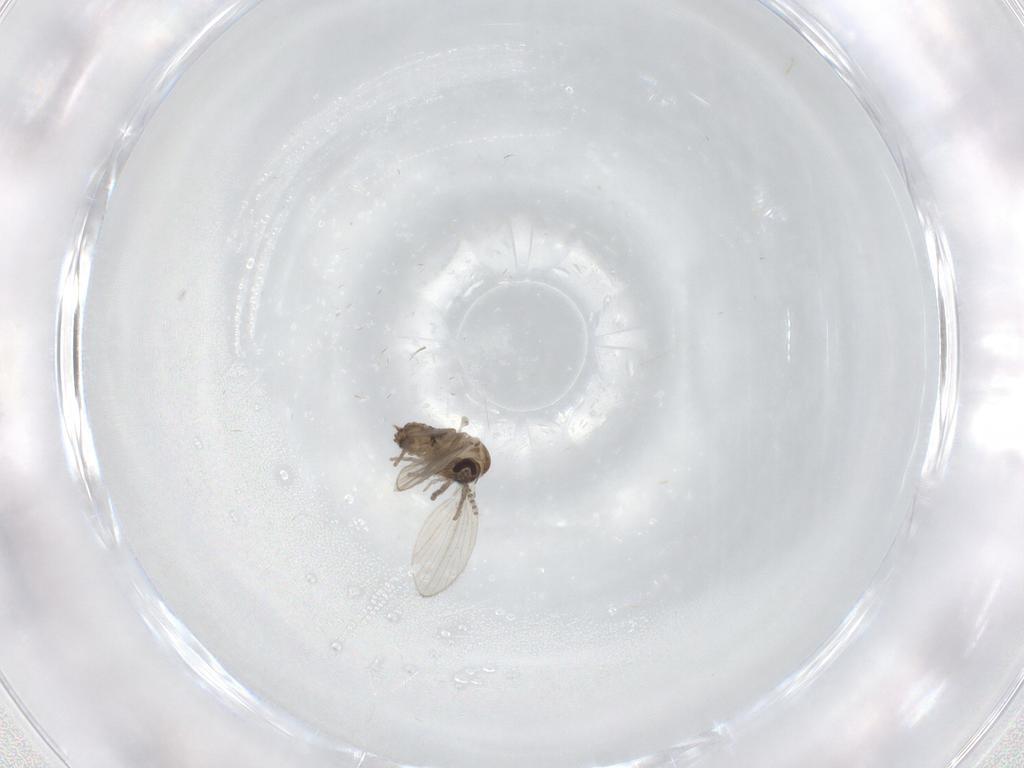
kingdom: Animalia
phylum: Arthropoda
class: Insecta
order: Diptera
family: Psychodidae
